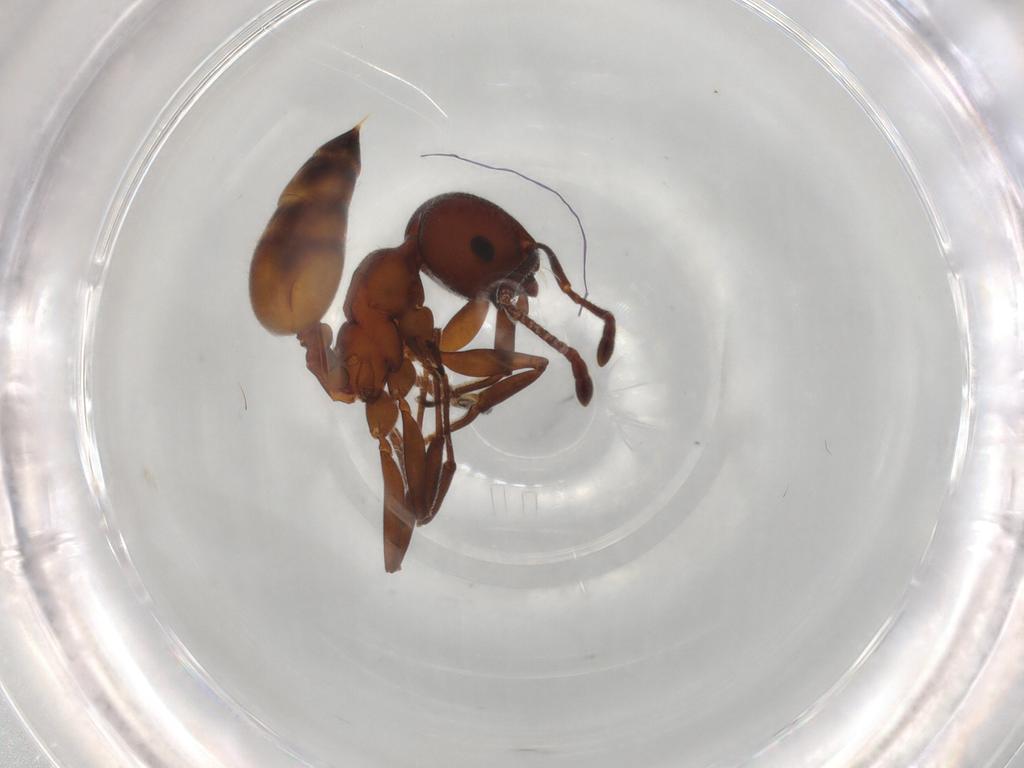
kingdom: Animalia
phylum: Arthropoda
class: Insecta
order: Hymenoptera
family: Formicidae
